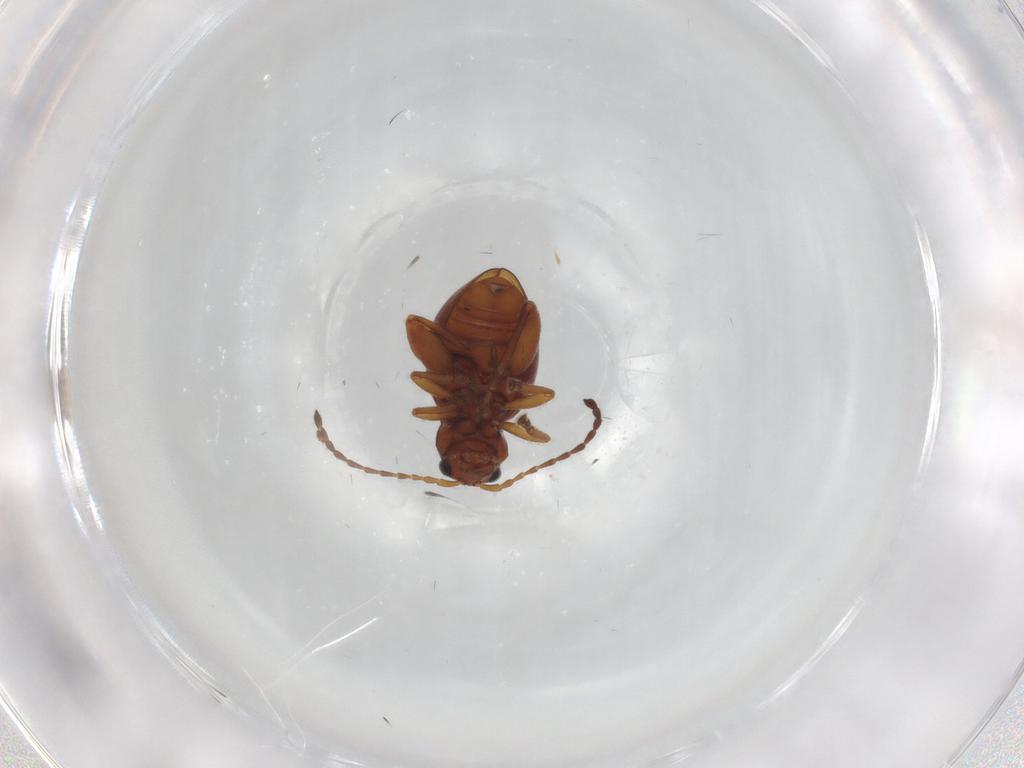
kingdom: Animalia
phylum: Arthropoda
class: Insecta
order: Coleoptera
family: Chrysomelidae
